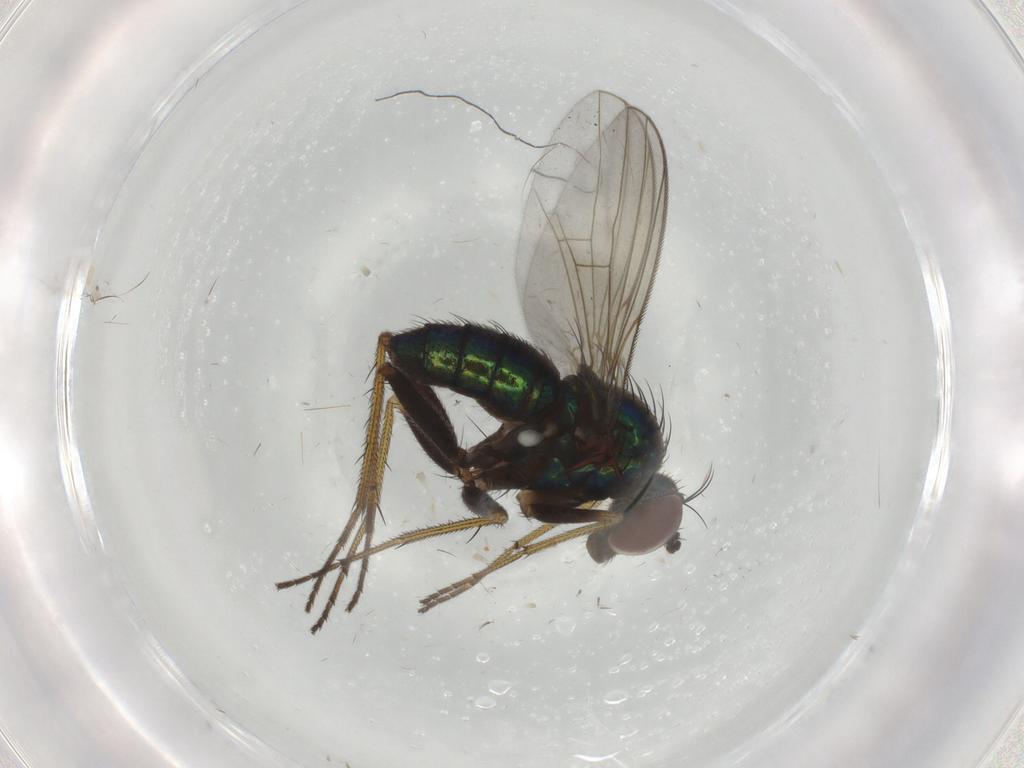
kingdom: Animalia
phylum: Arthropoda
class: Insecta
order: Diptera
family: Dolichopodidae
